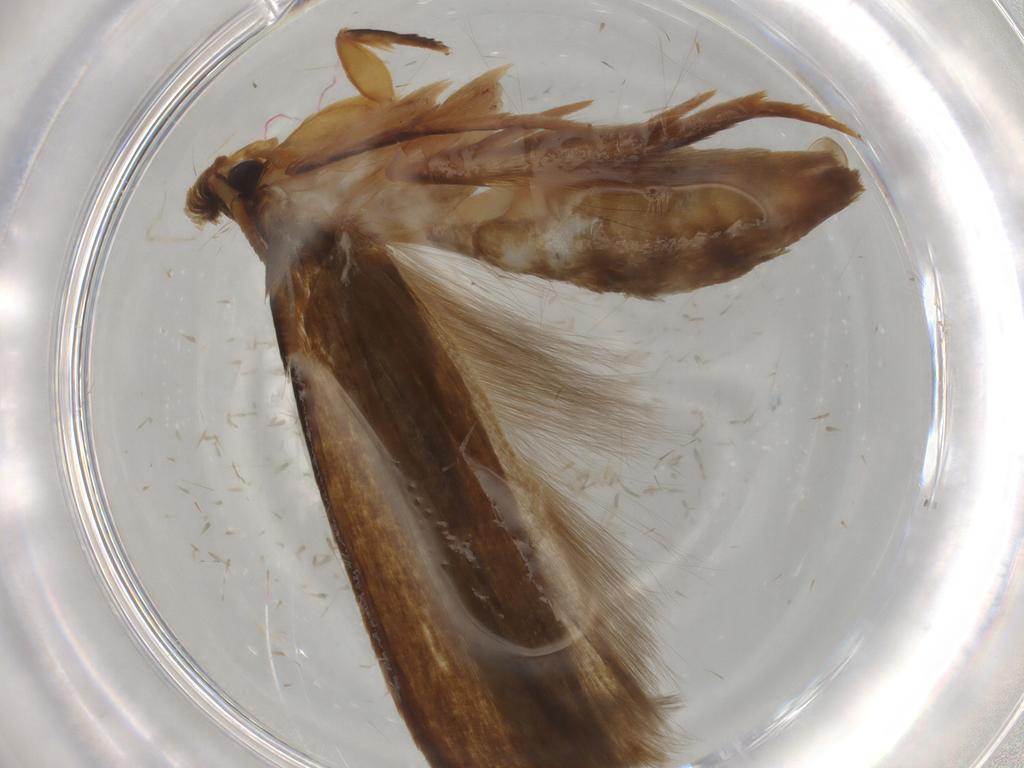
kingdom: Animalia
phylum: Arthropoda
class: Insecta
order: Lepidoptera
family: Tineidae
